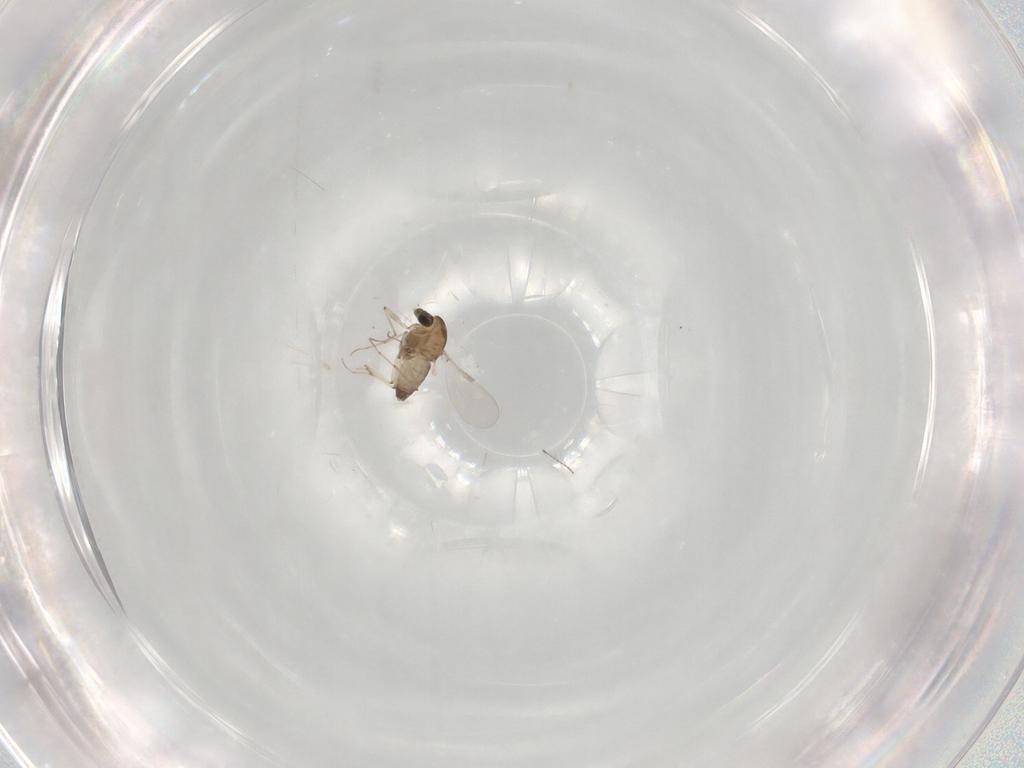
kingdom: Animalia
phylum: Arthropoda
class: Insecta
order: Diptera
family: Chironomidae
